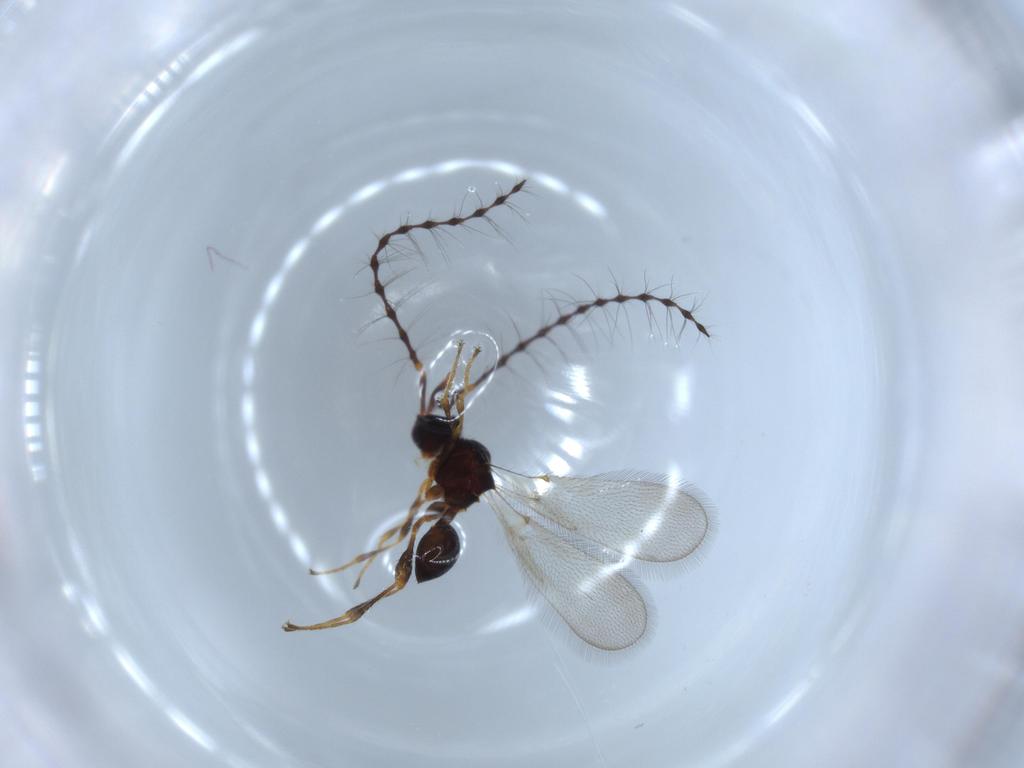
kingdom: Animalia
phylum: Arthropoda
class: Insecta
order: Hymenoptera
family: Diapriidae
